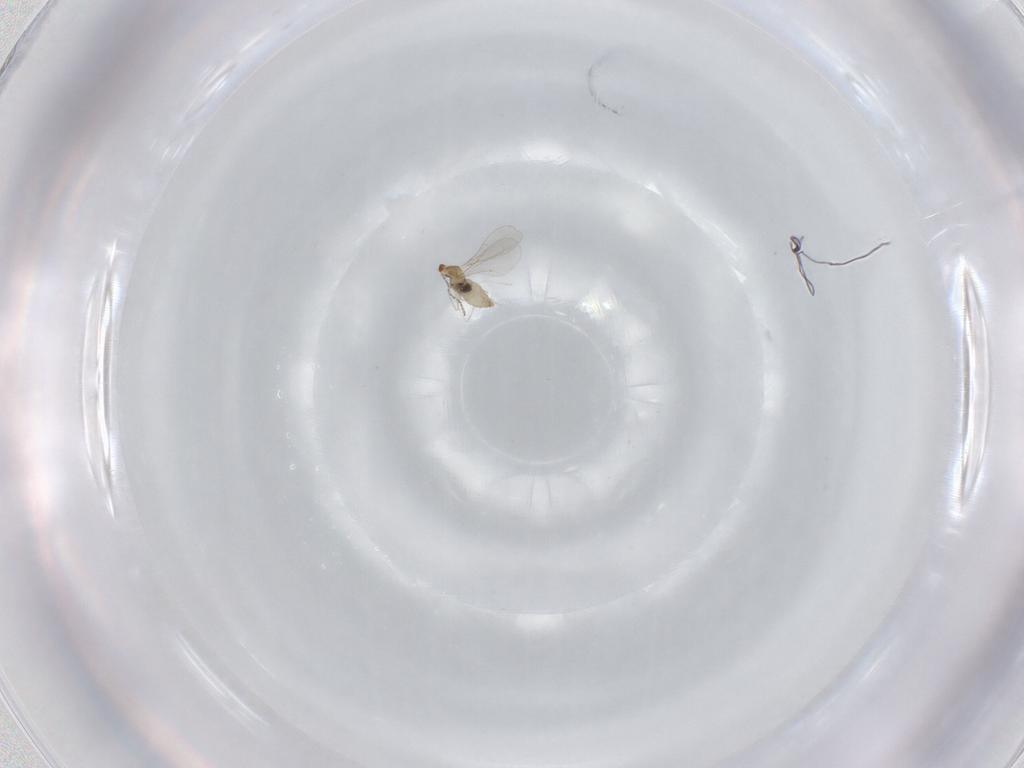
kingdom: Animalia
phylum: Arthropoda
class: Insecta
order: Diptera
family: Cecidomyiidae
